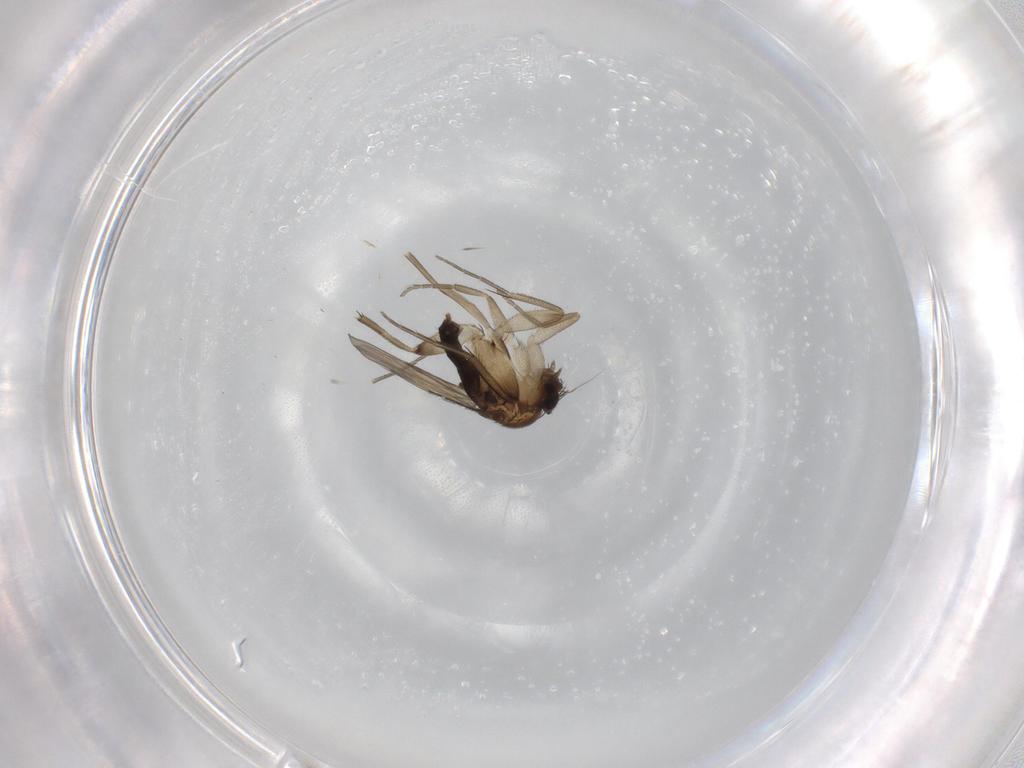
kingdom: Animalia
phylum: Arthropoda
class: Insecta
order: Diptera
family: Phoridae
